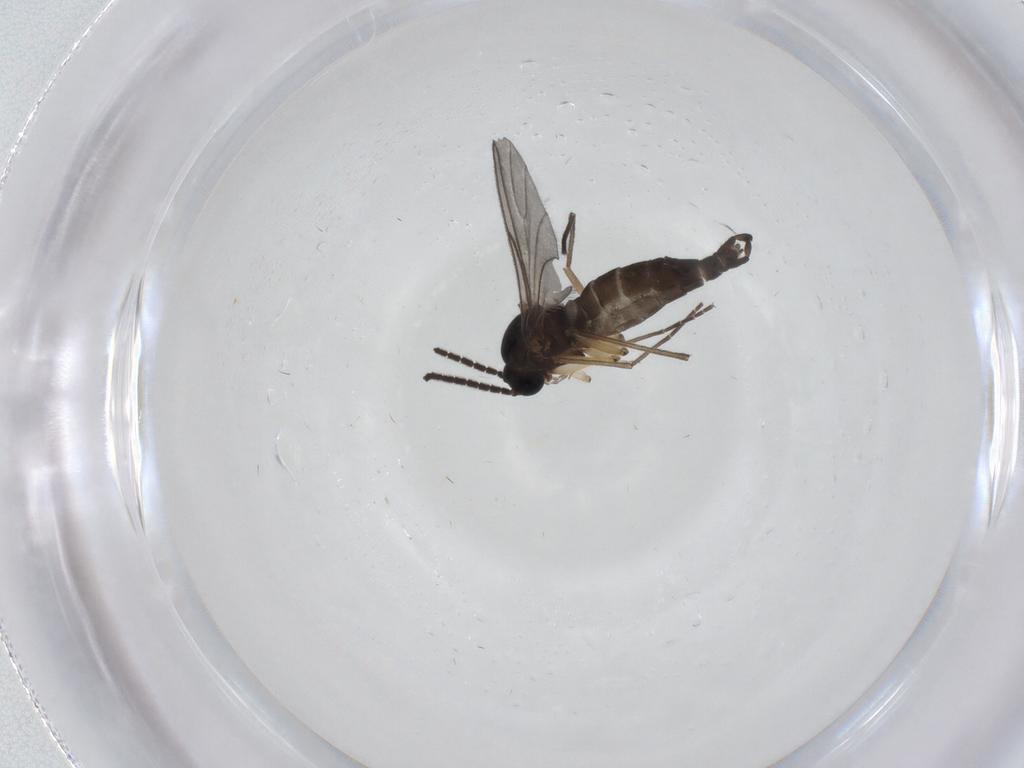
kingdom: Animalia
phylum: Arthropoda
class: Insecta
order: Diptera
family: Sciaridae
